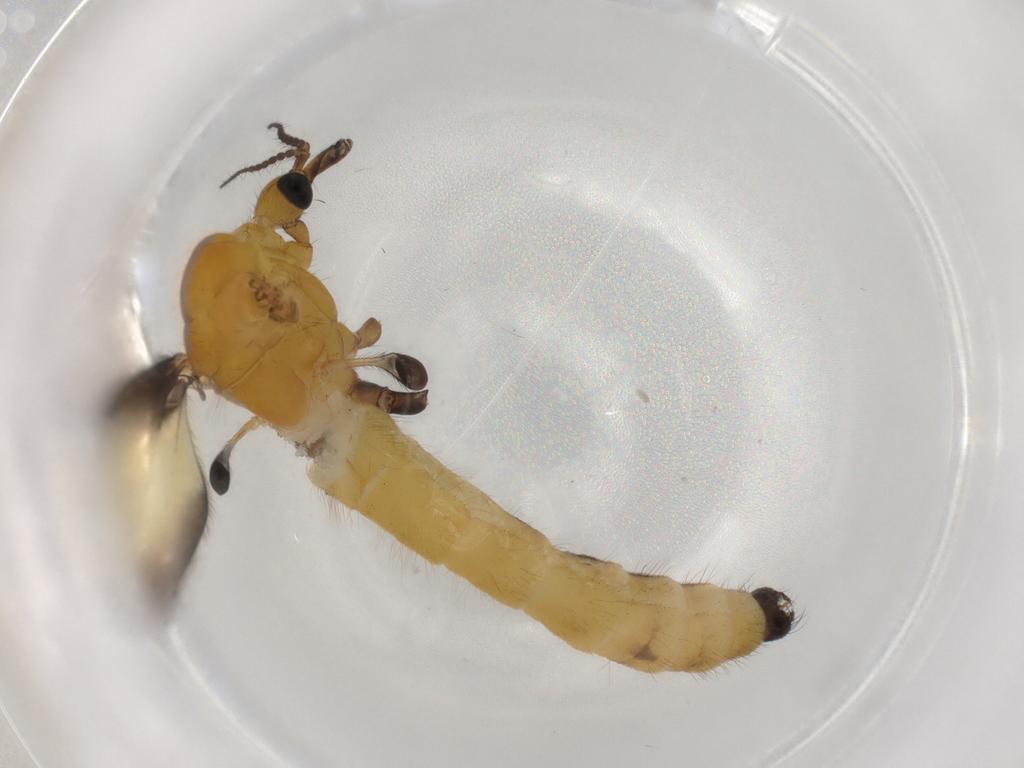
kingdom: Animalia
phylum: Arthropoda
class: Insecta
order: Diptera
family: Limoniidae
